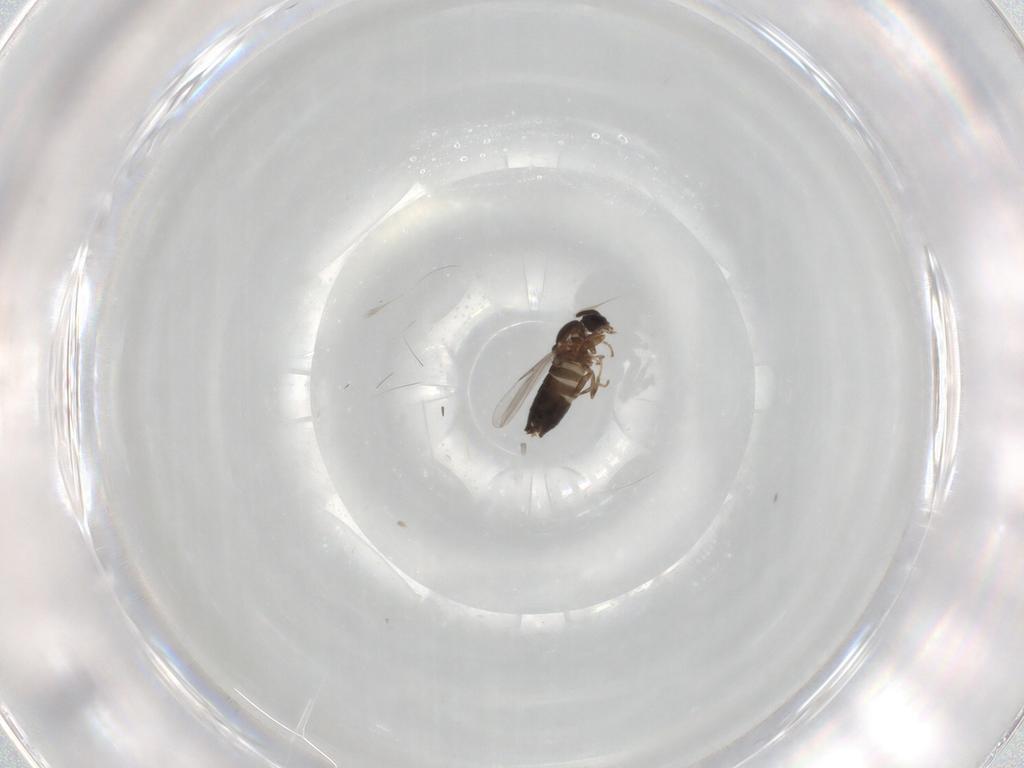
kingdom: Animalia
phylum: Arthropoda
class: Insecta
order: Diptera
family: Scatopsidae
